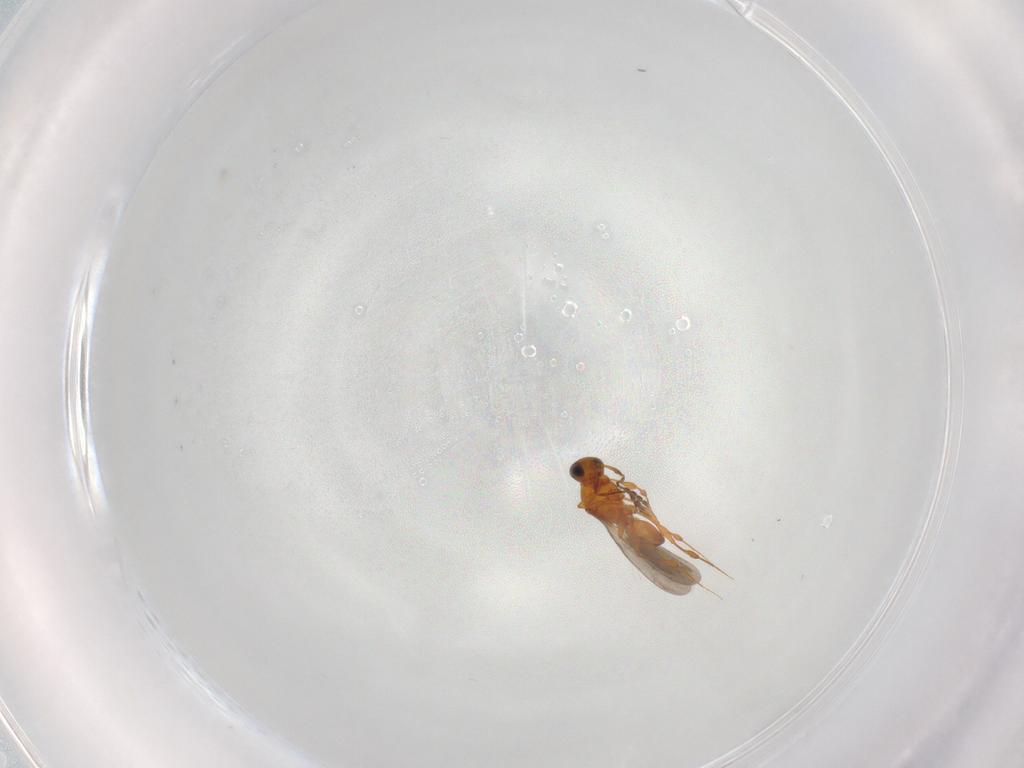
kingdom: Animalia
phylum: Arthropoda
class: Insecta
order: Hymenoptera
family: Platygastridae
